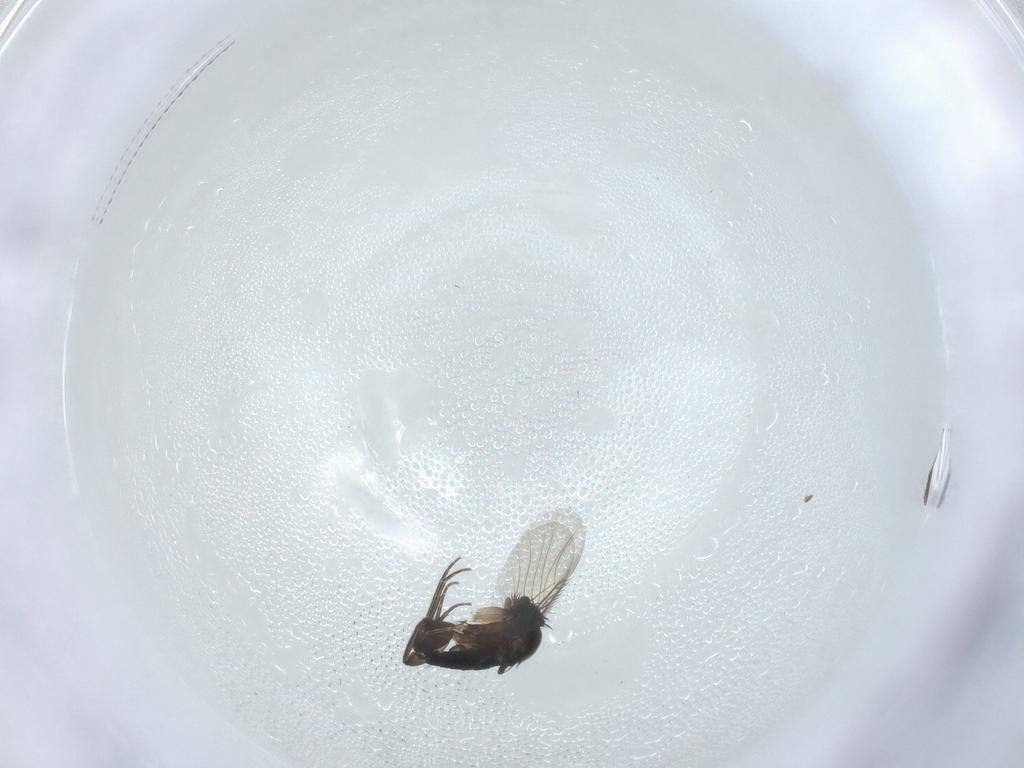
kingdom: Animalia
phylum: Arthropoda
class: Insecta
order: Diptera
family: Phoridae
